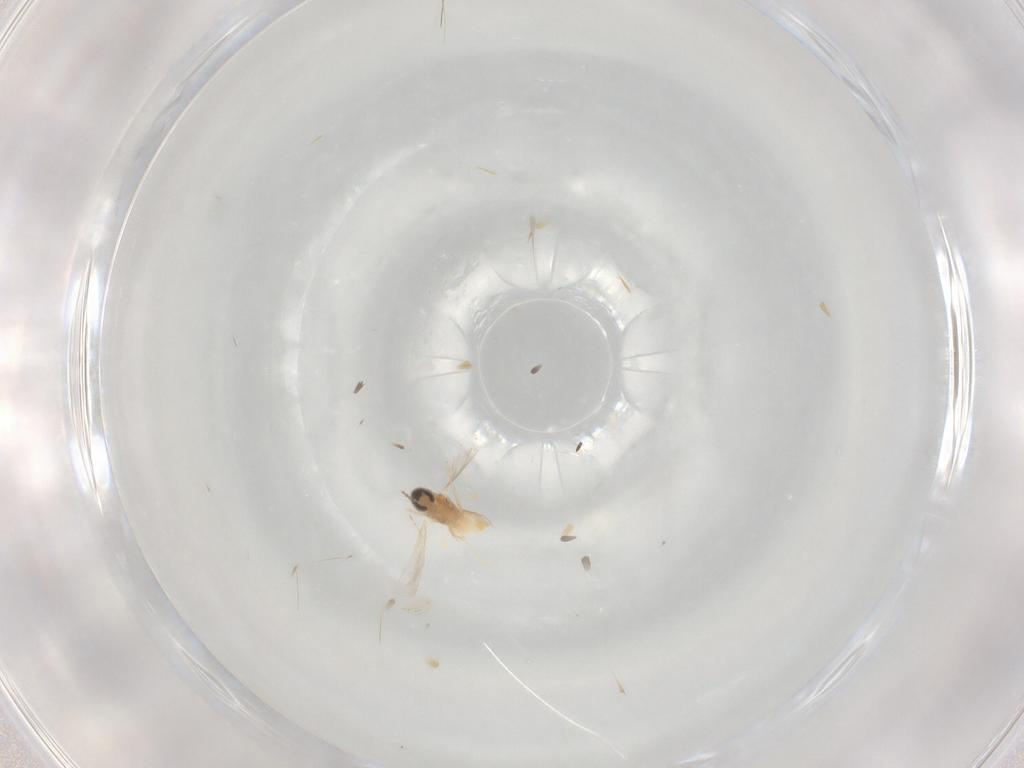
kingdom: Animalia
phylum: Arthropoda
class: Insecta
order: Diptera
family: Cecidomyiidae
